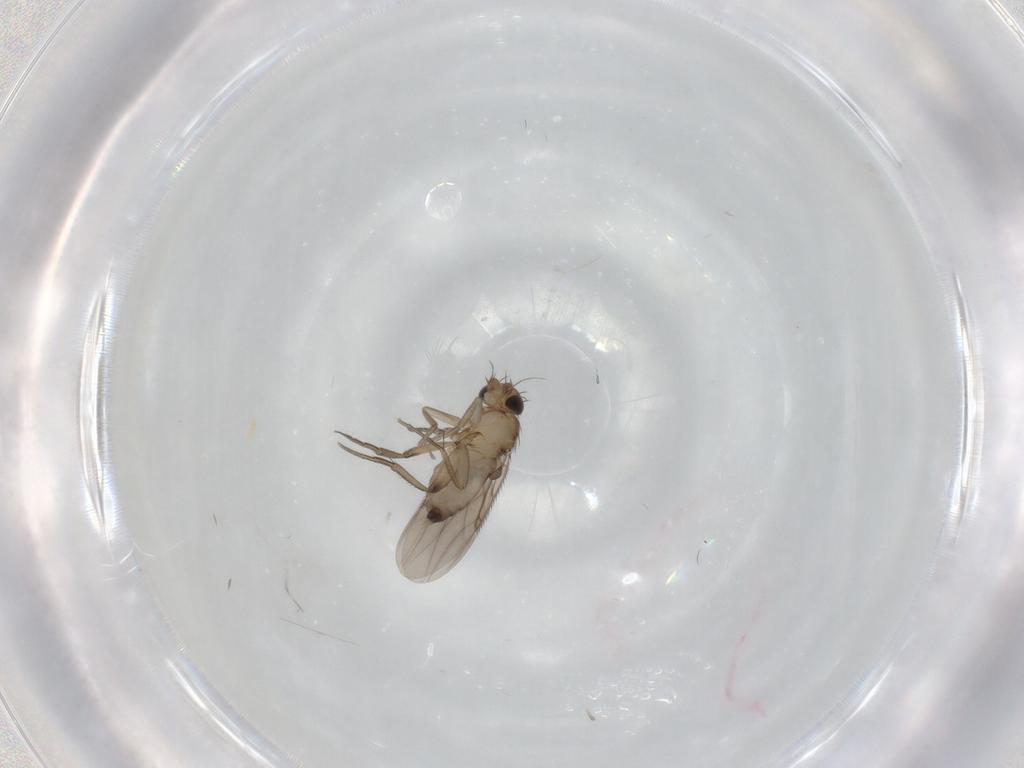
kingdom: Animalia
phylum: Arthropoda
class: Insecta
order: Diptera
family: Phoridae
